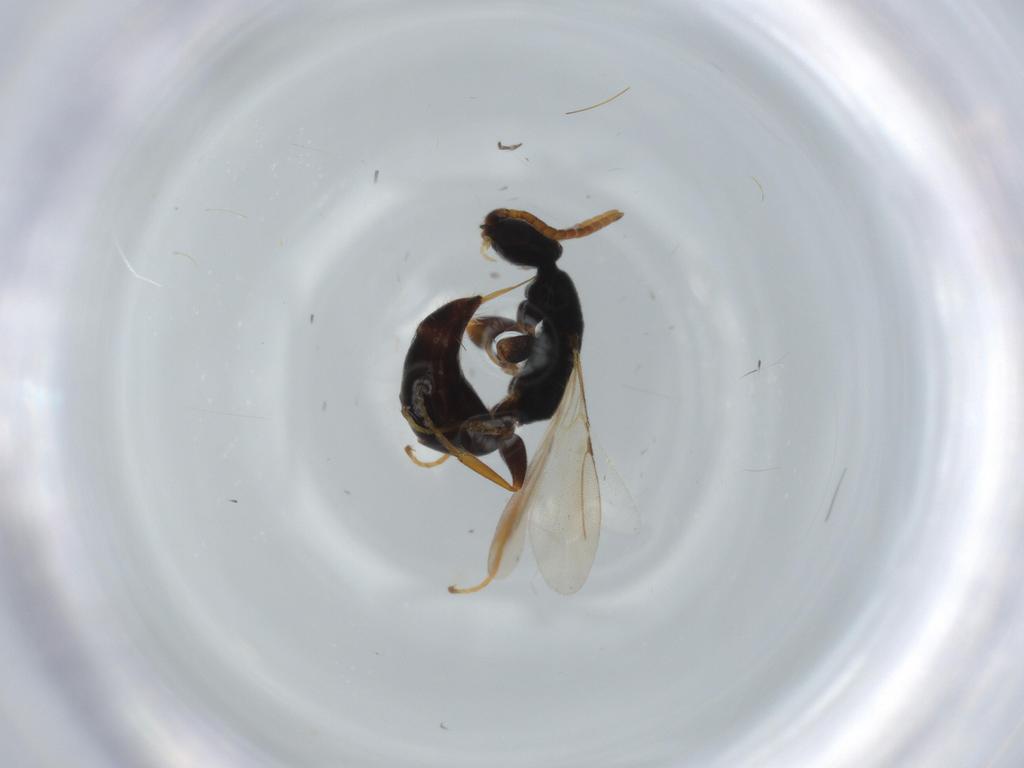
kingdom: Animalia
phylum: Arthropoda
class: Insecta
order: Hymenoptera
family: Bethylidae
